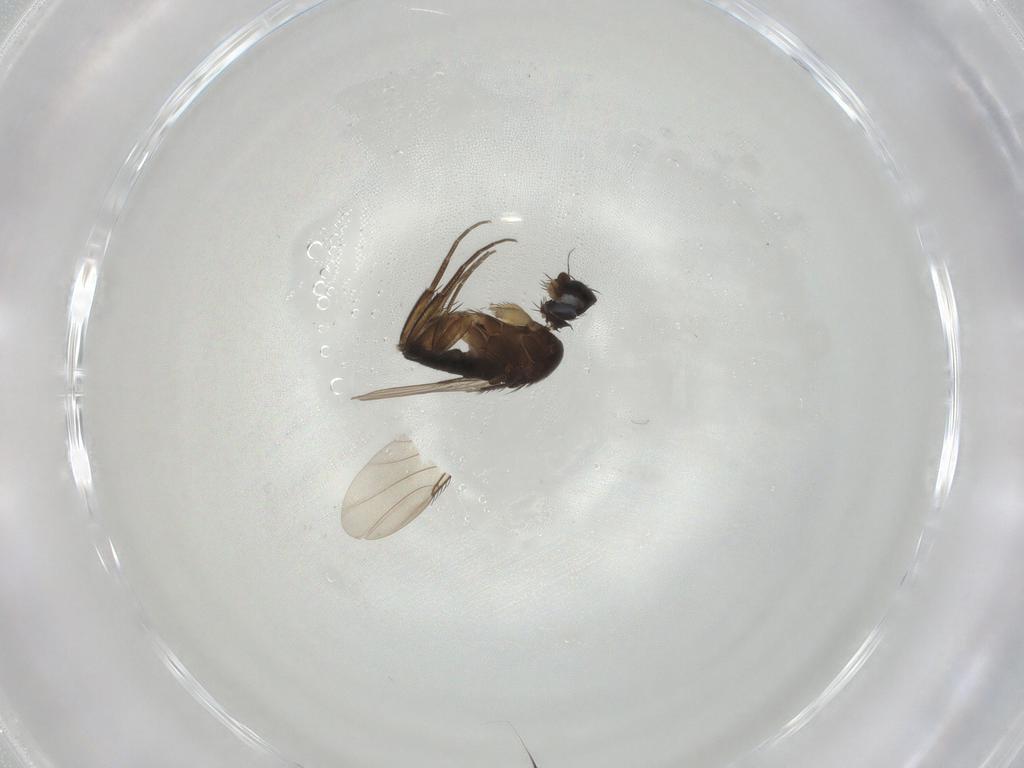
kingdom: Animalia
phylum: Arthropoda
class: Insecta
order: Diptera
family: Phoridae
